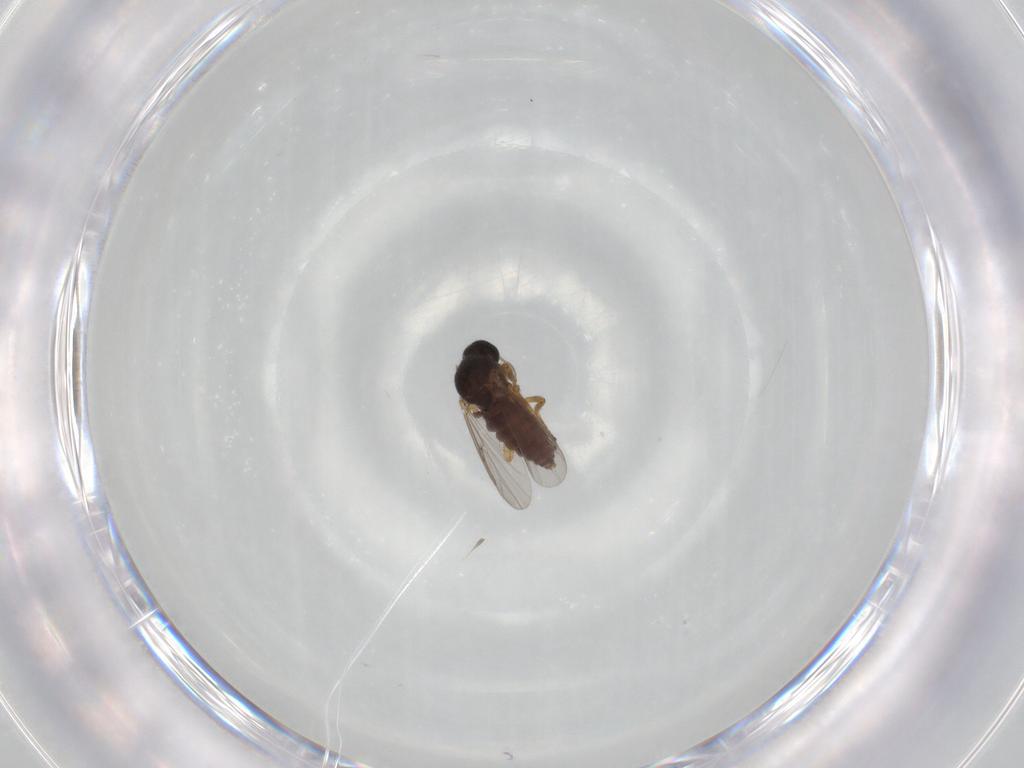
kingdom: Animalia
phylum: Arthropoda
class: Insecta
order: Diptera
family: Ceratopogonidae
